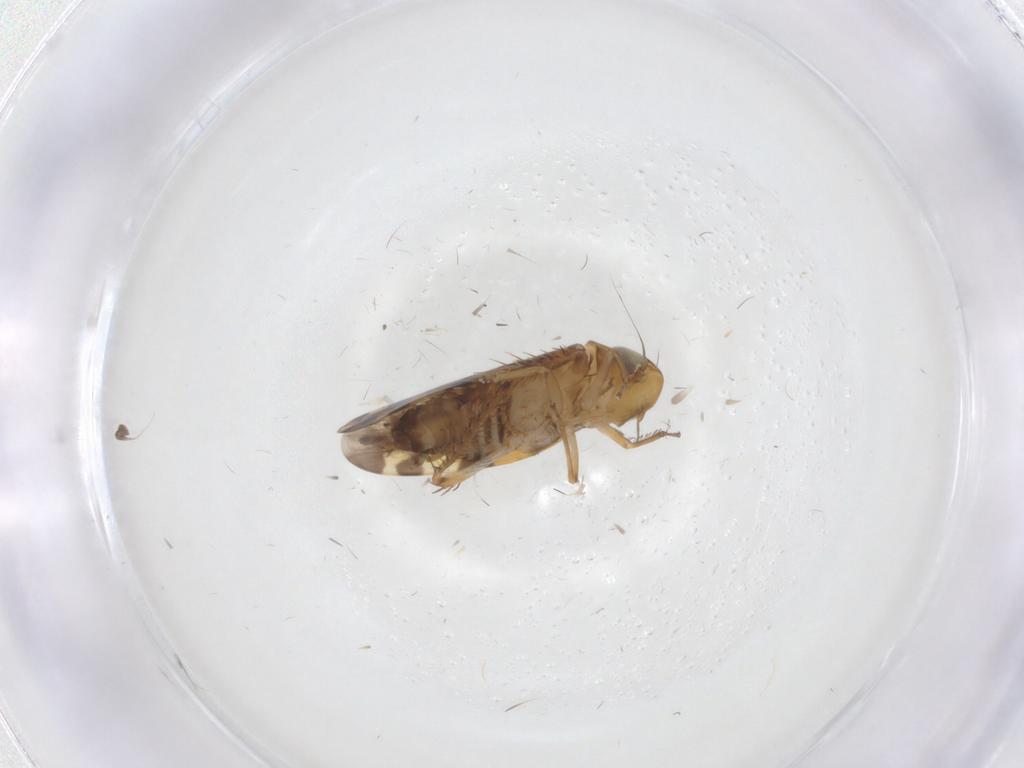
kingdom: Animalia
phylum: Arthropoda
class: Insecta
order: Hemiptera
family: Cicadellidae
